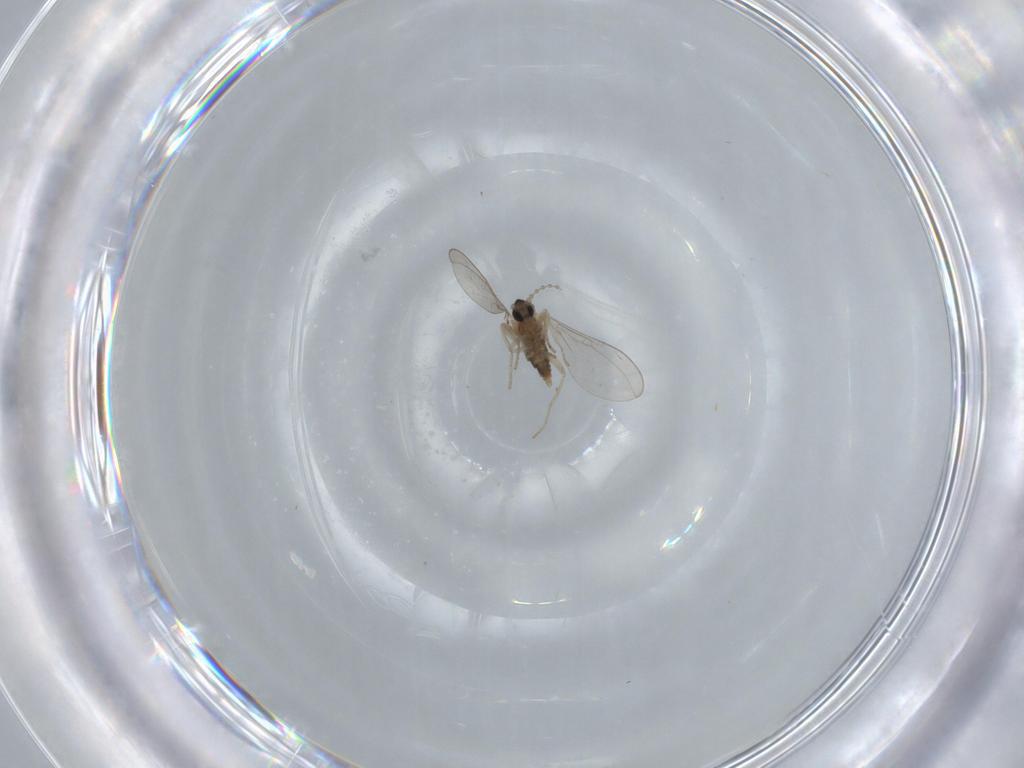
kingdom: Animalia
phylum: Arthropoda
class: Insecta
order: Diptera
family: Cecidomyiidae
